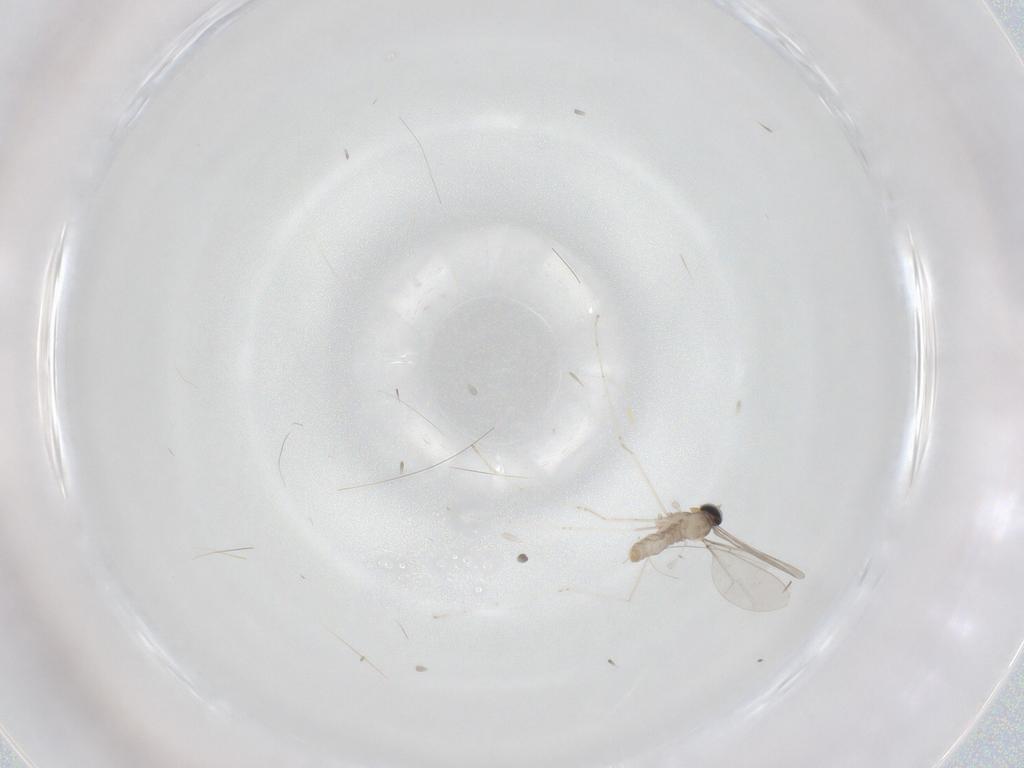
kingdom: Animalia
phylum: Arthropoda
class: Insecta
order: Diptera
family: Cecidomyiidae
